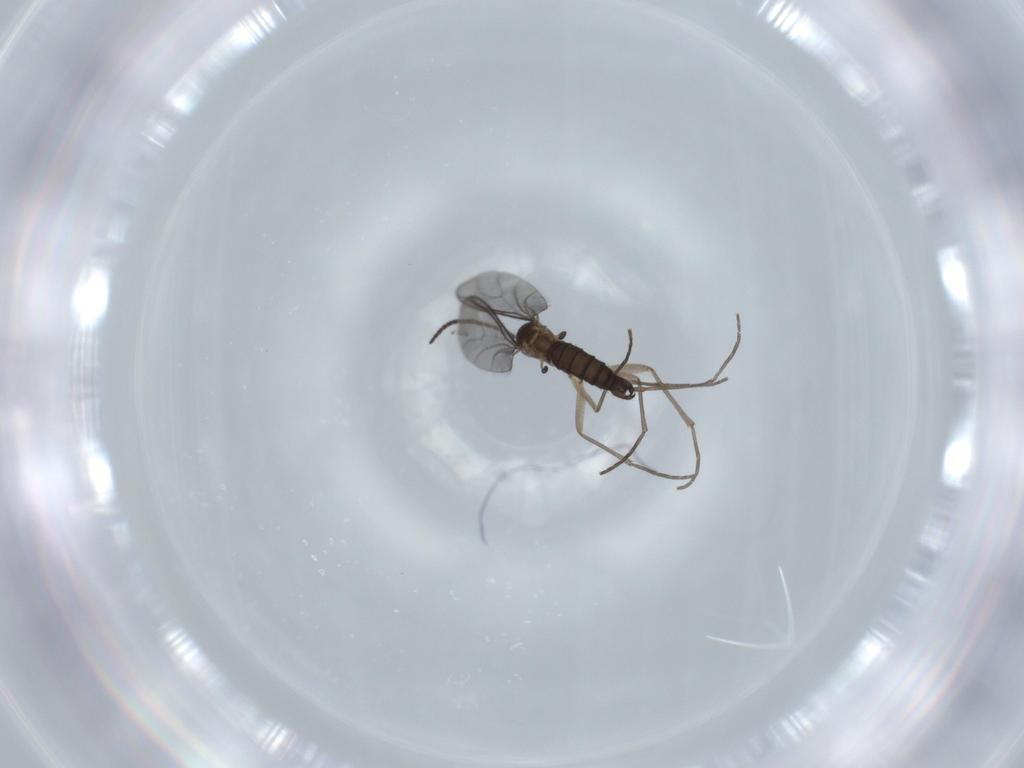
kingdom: Animalia
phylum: Arthropoda
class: Insecta
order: Diptera
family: Sciaridae
